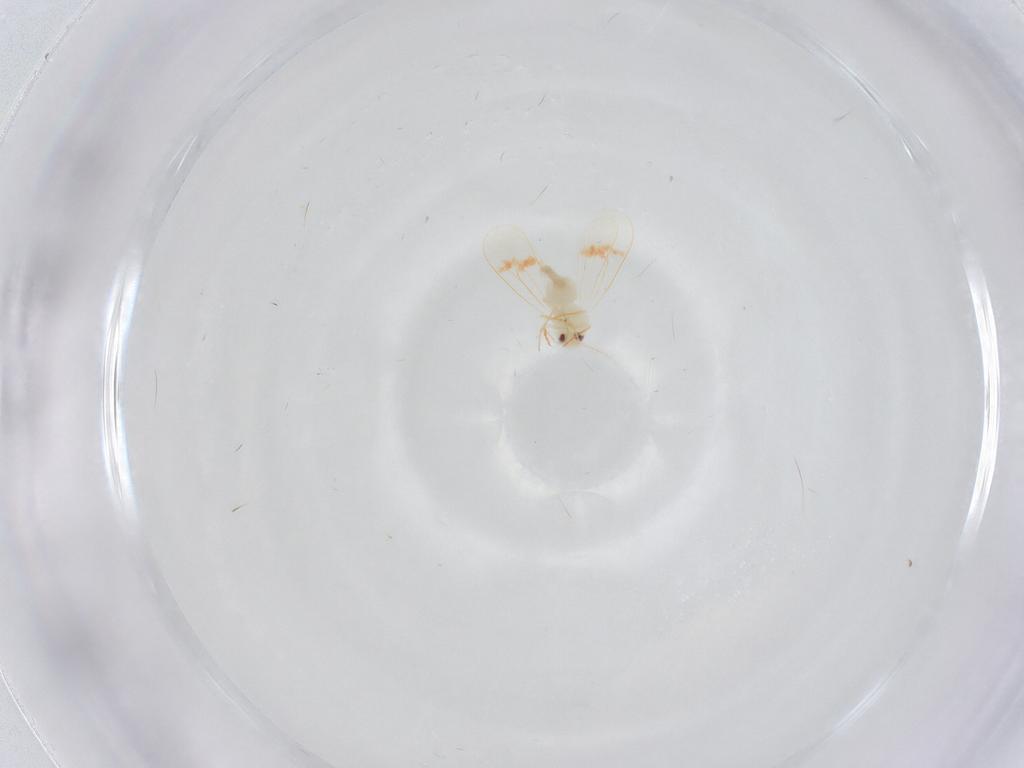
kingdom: Animalia
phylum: Arthropoda
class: Insecta
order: Hemiptera
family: Aleyrodidae
